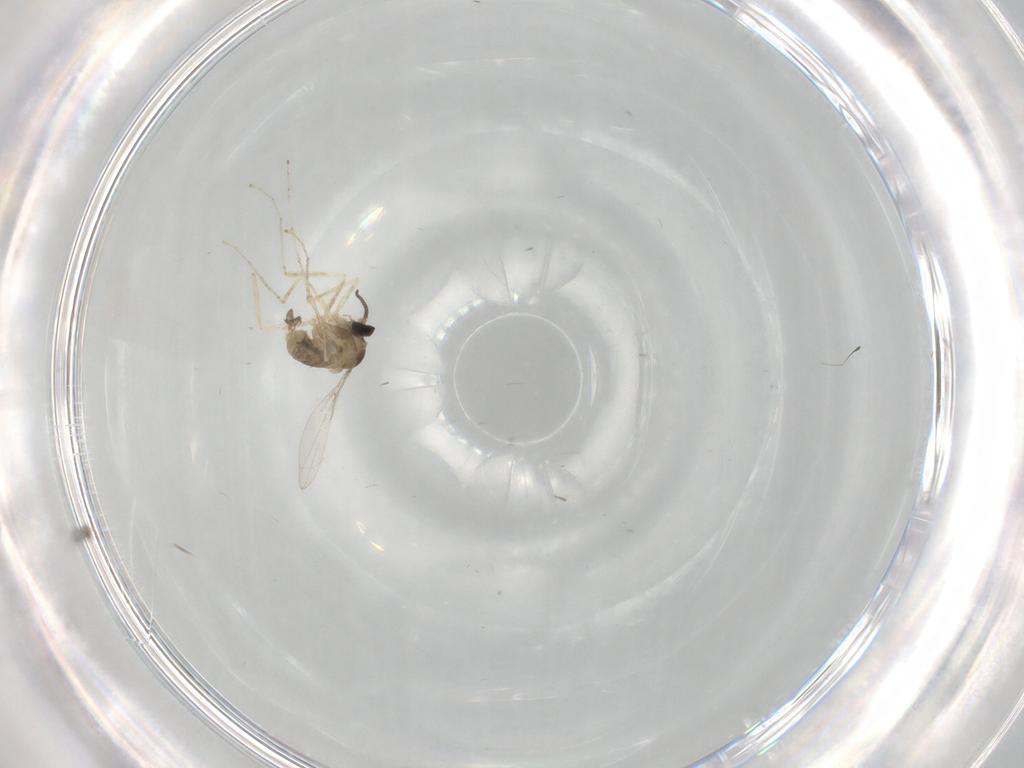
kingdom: Animalia
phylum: Arthropoda
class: Insecta
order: Diptera
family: Cecidomyiidae
